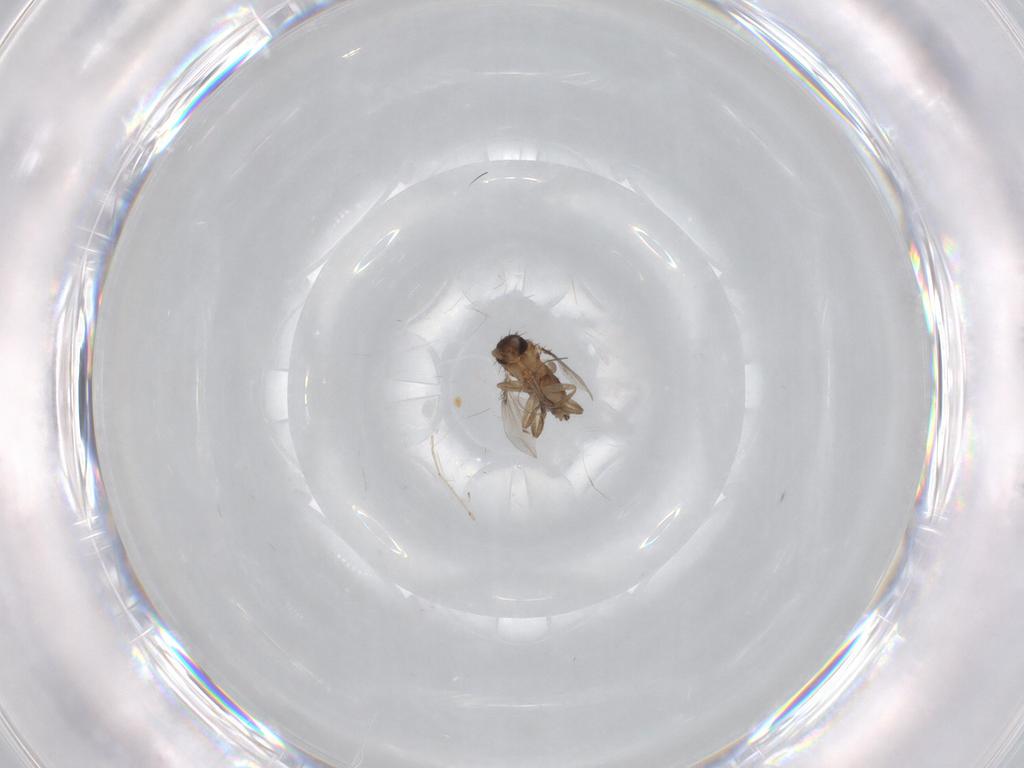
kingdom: Animalia
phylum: Arthropoda
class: Insecta
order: Diptera
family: Phoridae
